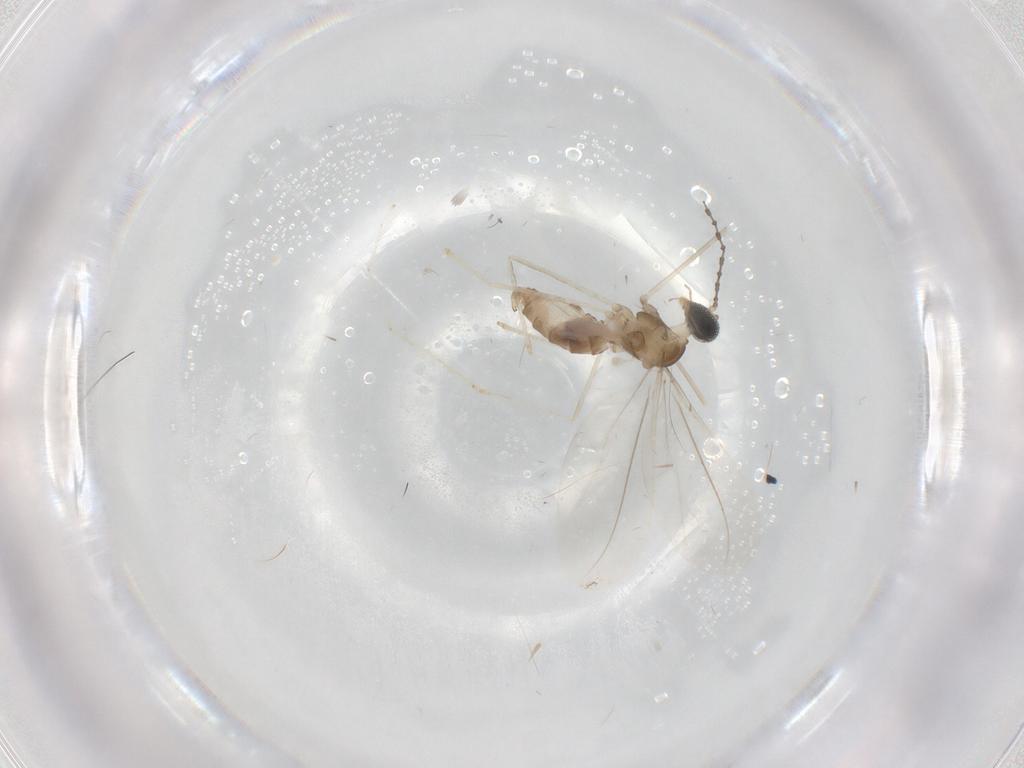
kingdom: Animalia
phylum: Arthropoda
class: Insecta
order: Diptera
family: Cecidomyiidae
